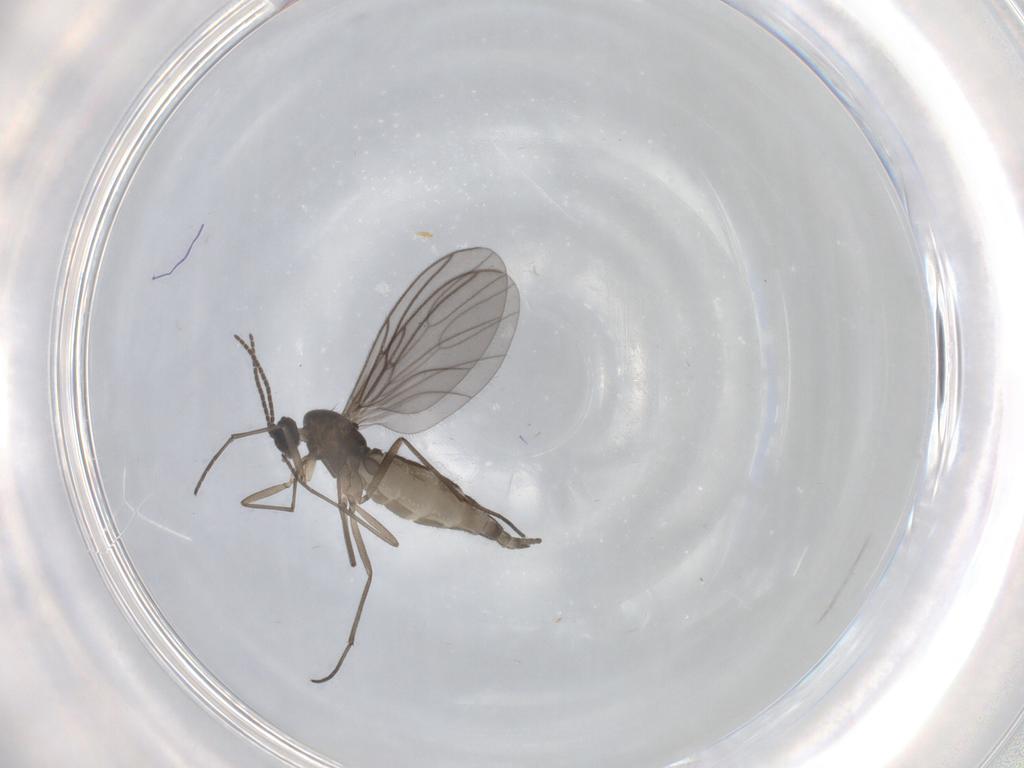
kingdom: Animalia
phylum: Arthropoda
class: Insecta
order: Diptera
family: Sciaridae
